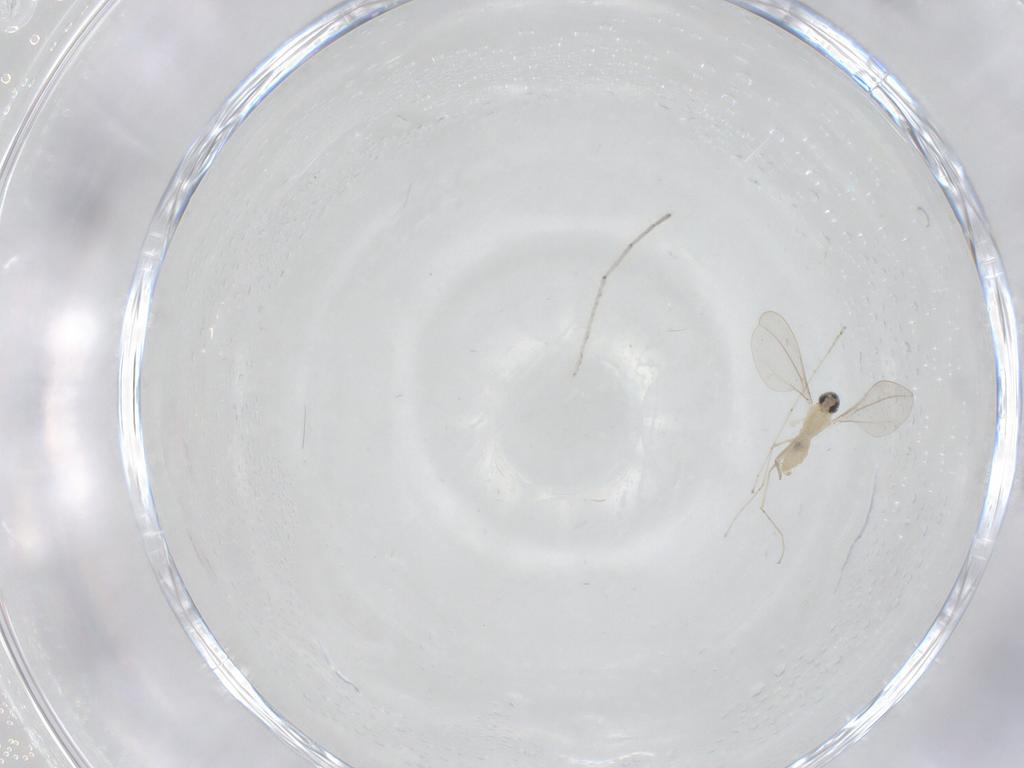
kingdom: Animalia
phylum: Arthropoda
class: Insecta
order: Diptera
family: Cecidomyiidae
